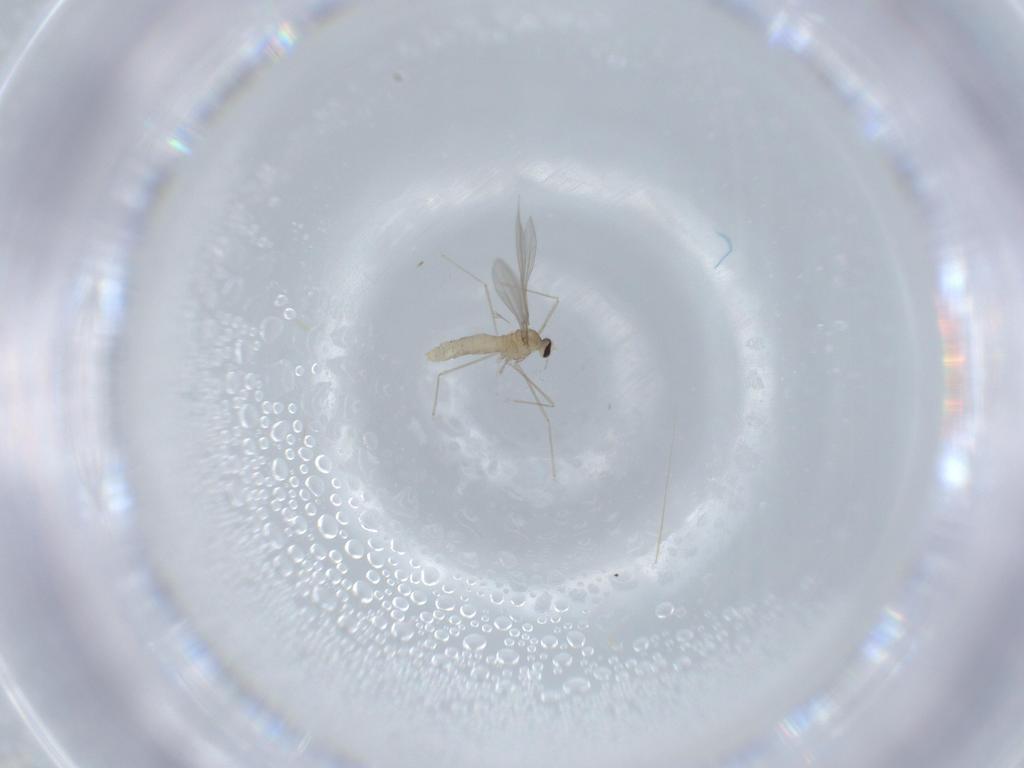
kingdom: Animalia
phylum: Arthropoda
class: Insecta
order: Diptera
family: Cecidomyiidae
